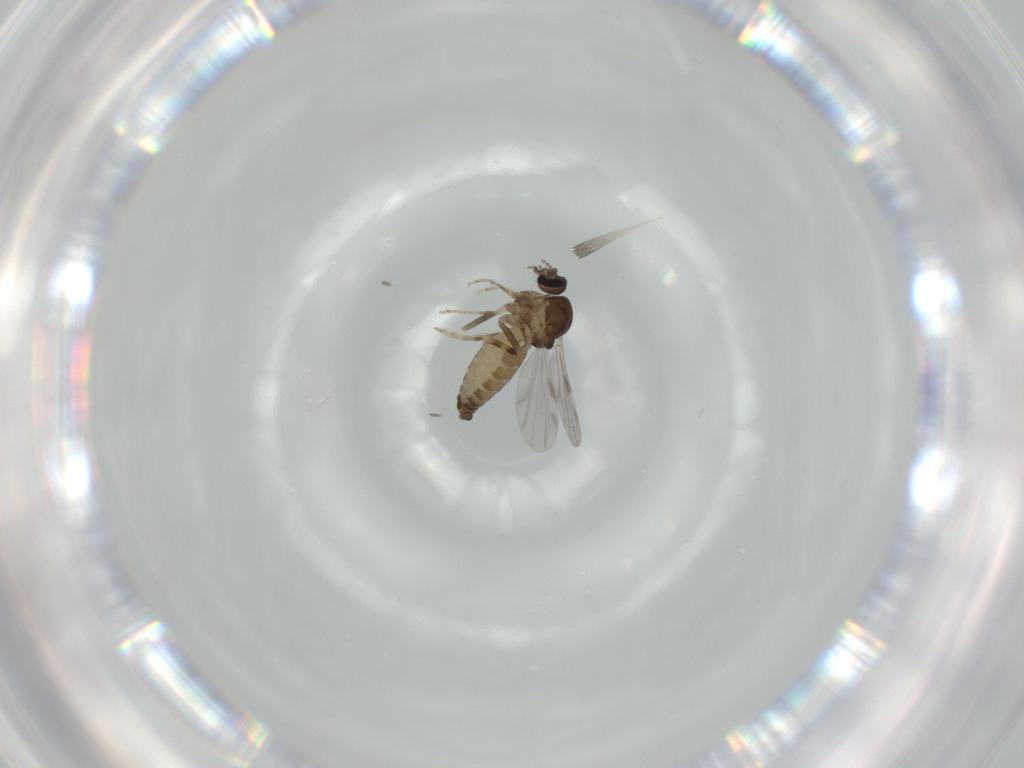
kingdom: Animalia
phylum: Arthropoda
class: Insecta
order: Diptera
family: Ceratopogonidae
